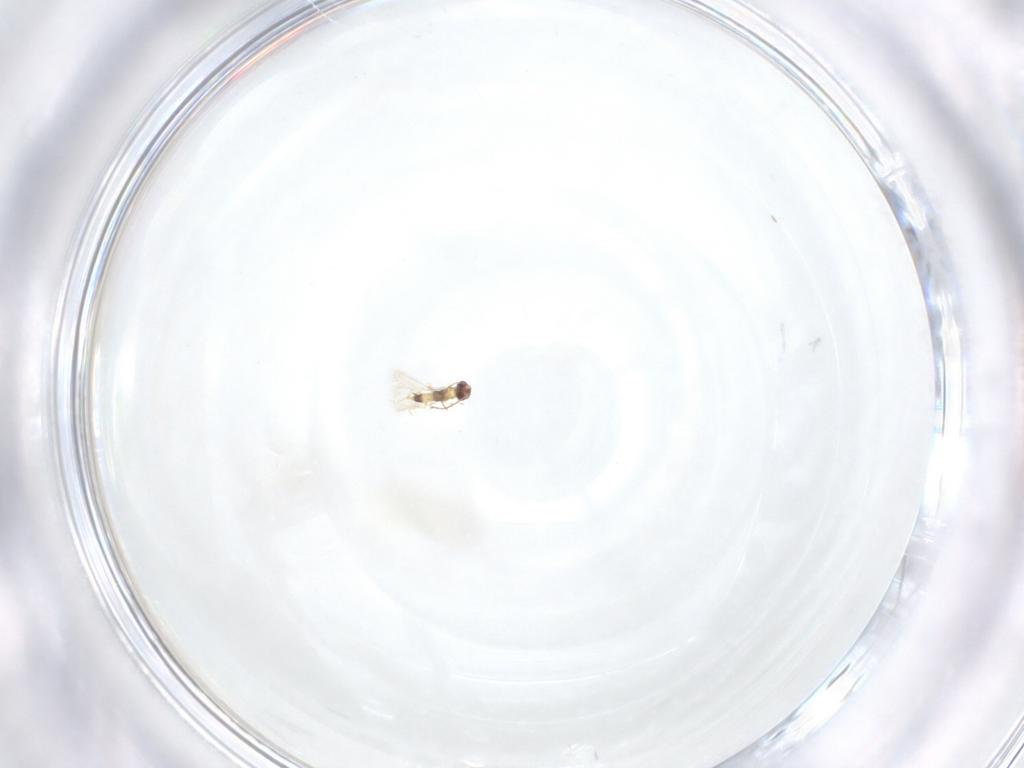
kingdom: Animalia
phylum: Arthropoda
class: Insecta
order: Hymenoptera
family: Mymaridae
